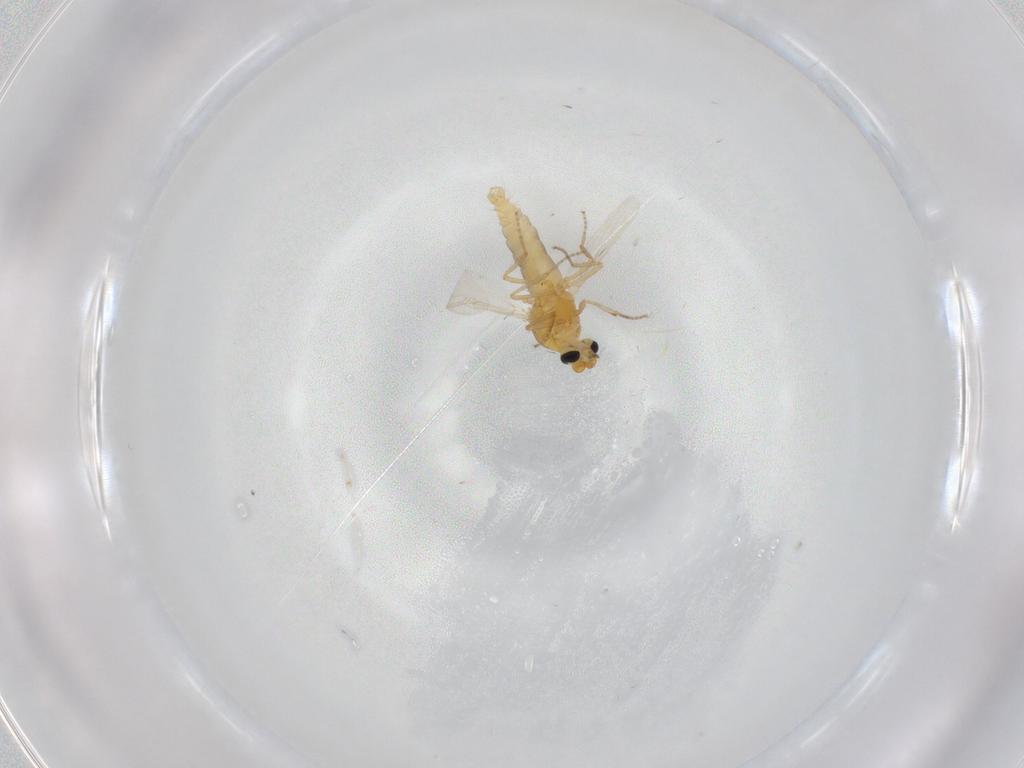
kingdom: Animalia
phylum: Arthropoda
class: Insecta
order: Diptera
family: Ceratopogonidae
